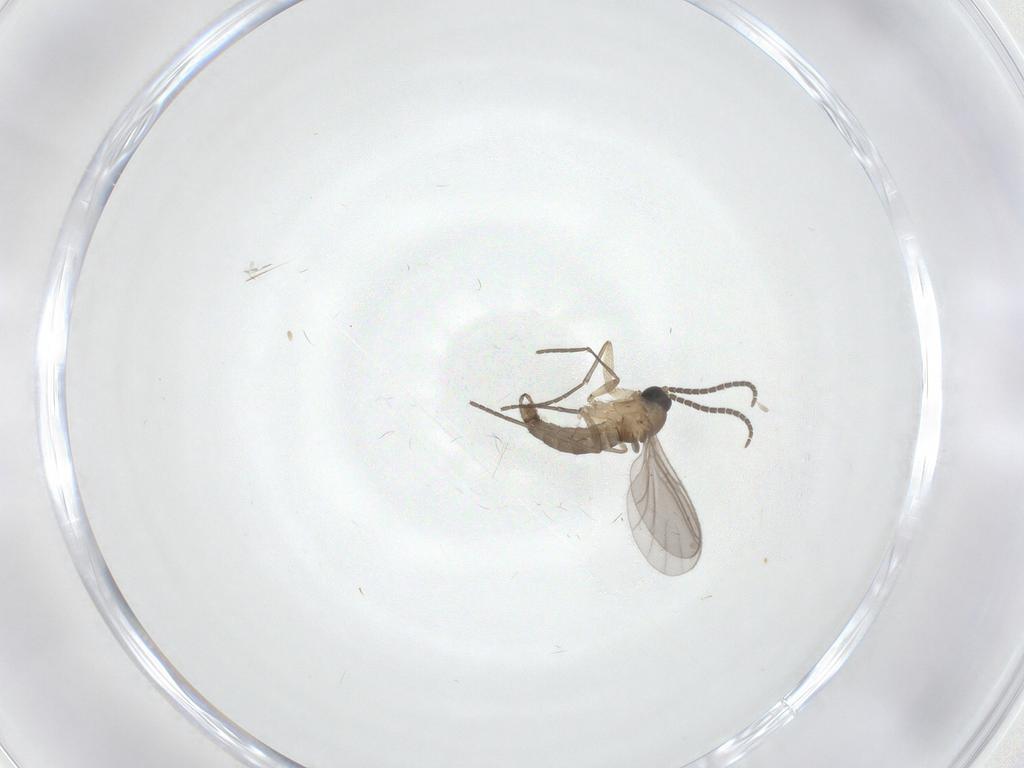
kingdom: Animalia
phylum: Arthropoda
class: Insecta
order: Diptera
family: Sciaridae
